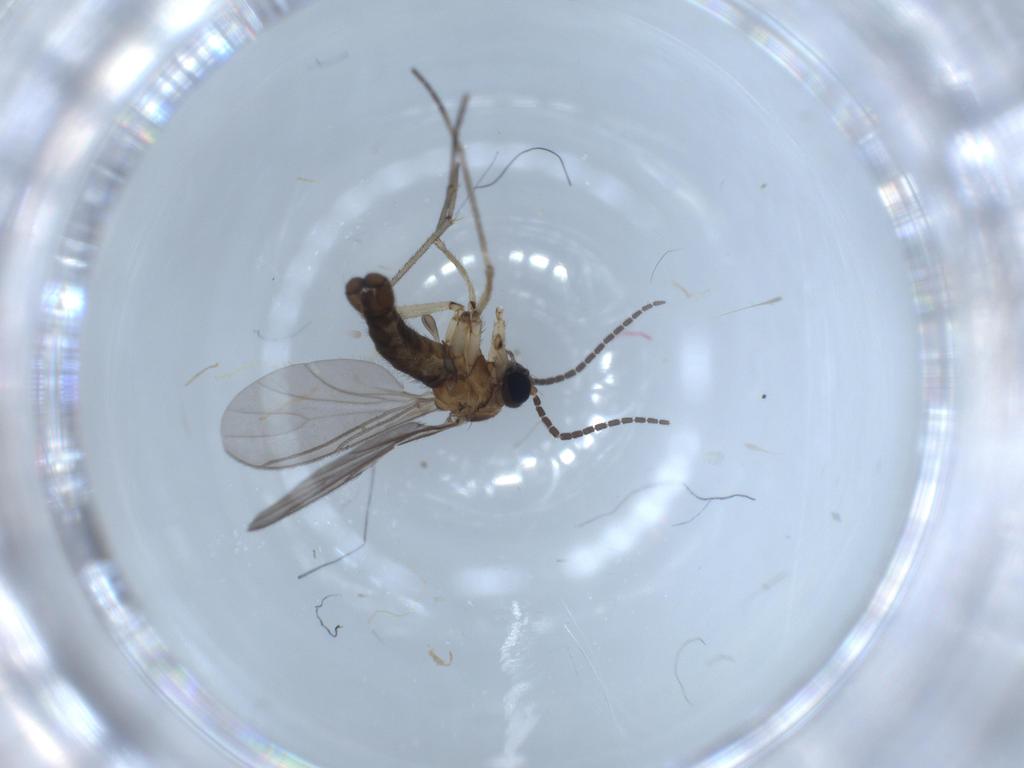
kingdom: Animalia
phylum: Arthropoda
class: Insecta
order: Diptera
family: Sciaridae
